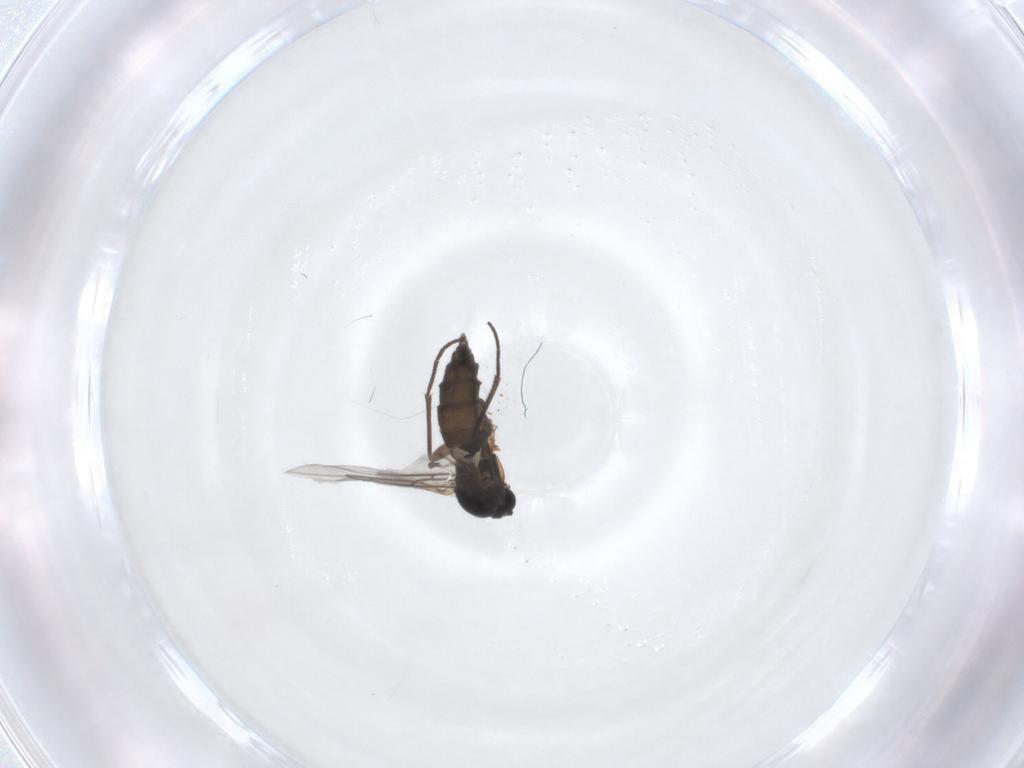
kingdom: Animalia
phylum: Arthropoda
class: Insecta
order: Diptera
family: Sciaridae
